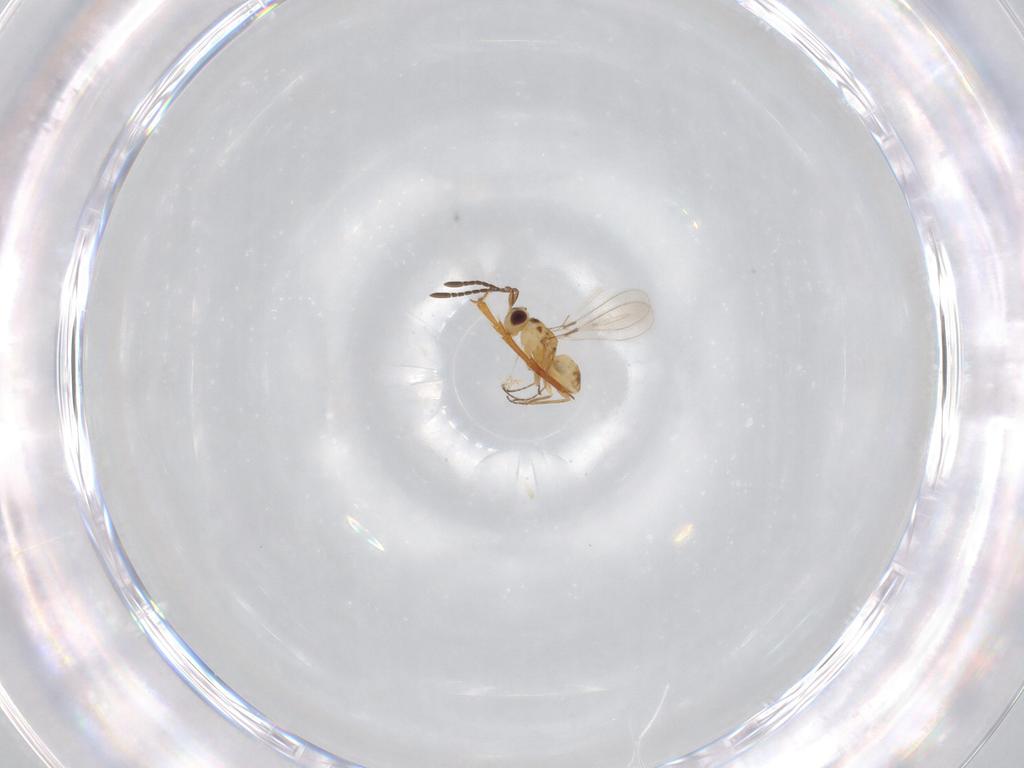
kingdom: Animalia
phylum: Arthropoda
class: Insecta
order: Hymenoptera
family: Formicidae
